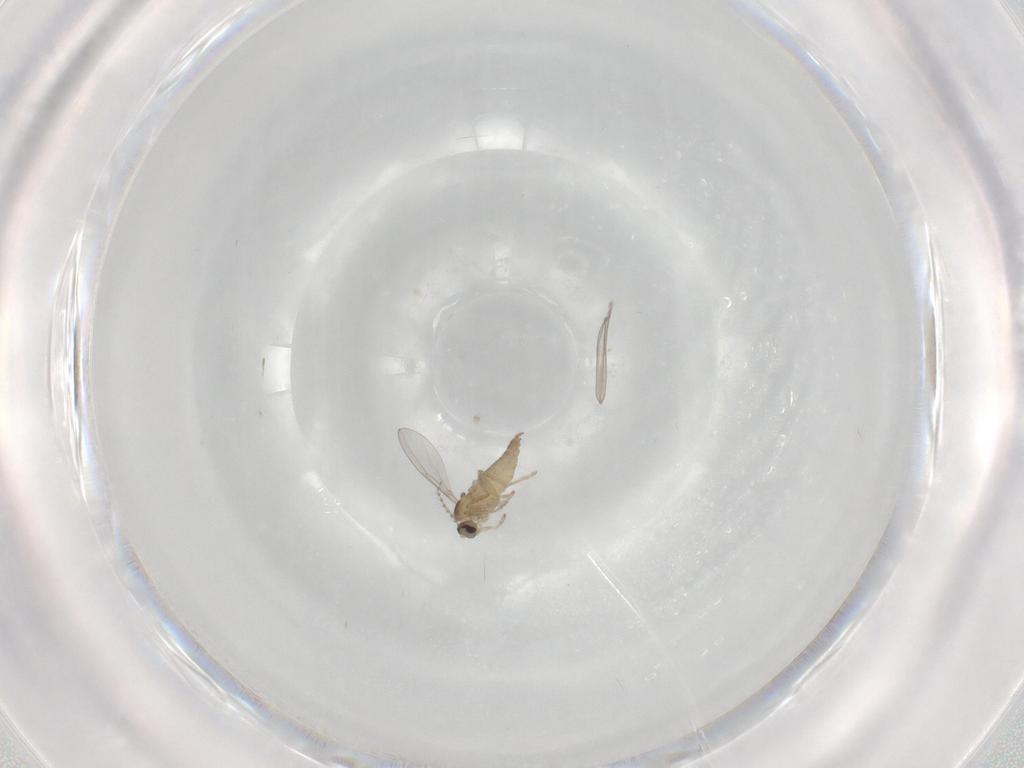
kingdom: Animalia
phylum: Arthropoda
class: Insecta
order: Diptera
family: Cecidomyiidae
